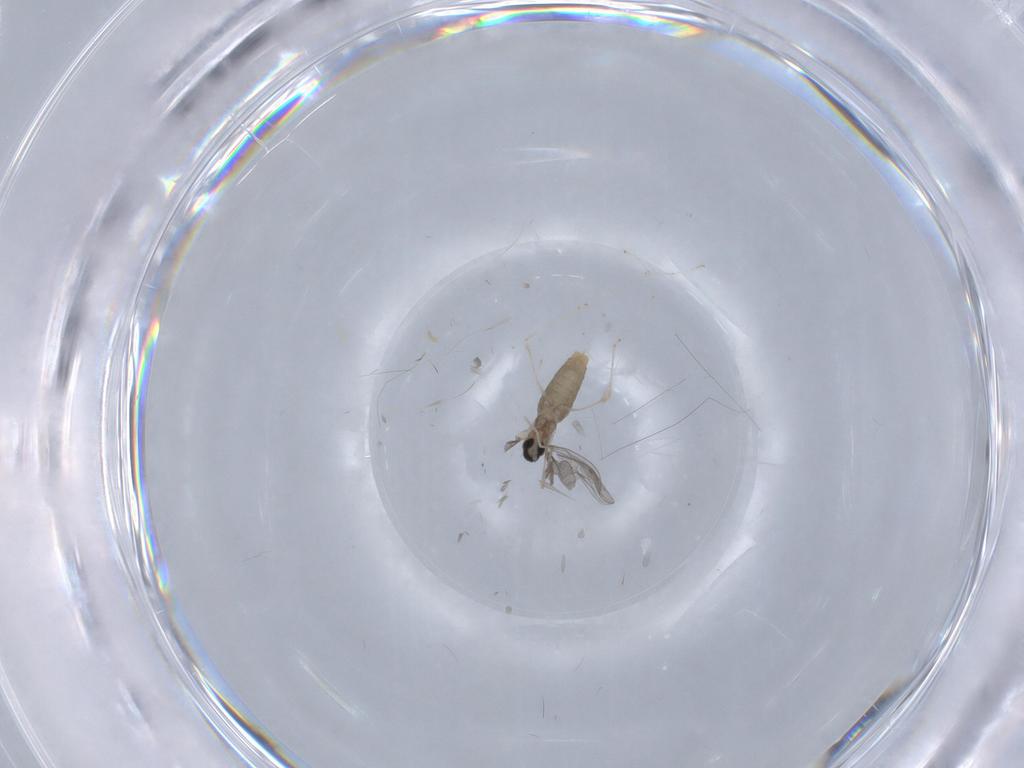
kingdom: Animalia
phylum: Arthropoda
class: Insecta
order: Diptera
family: Cecidomyiidae
